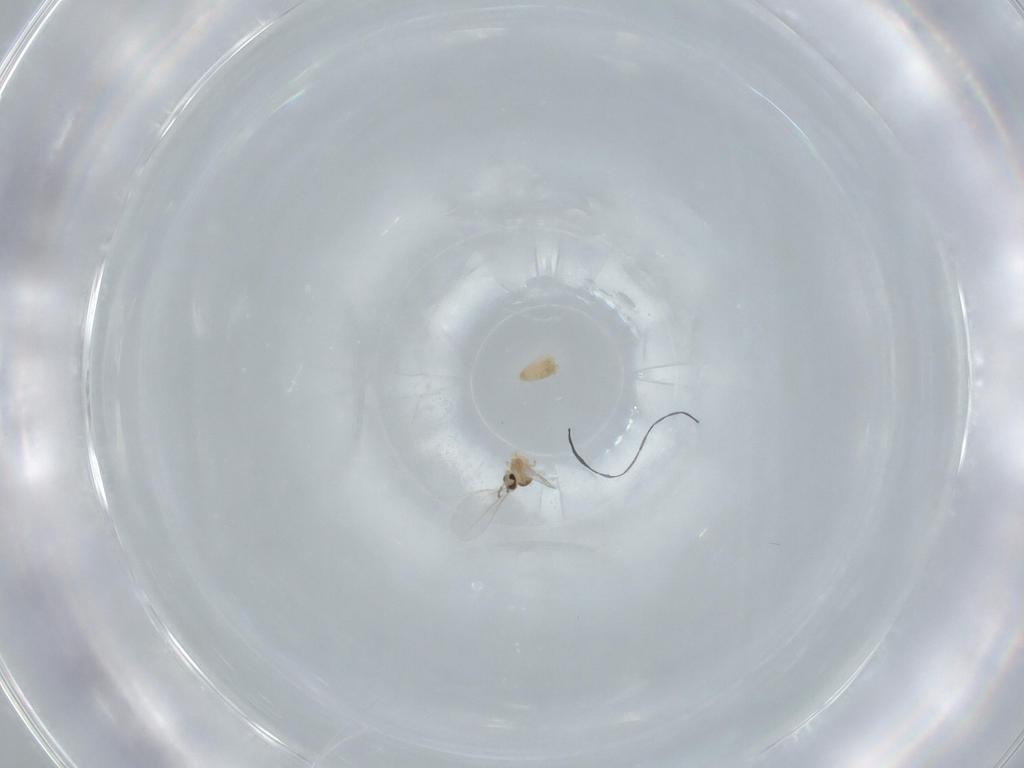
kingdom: Animalia
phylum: Arthropoda
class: Insecta
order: Diptera
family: Cecidomyiidae
